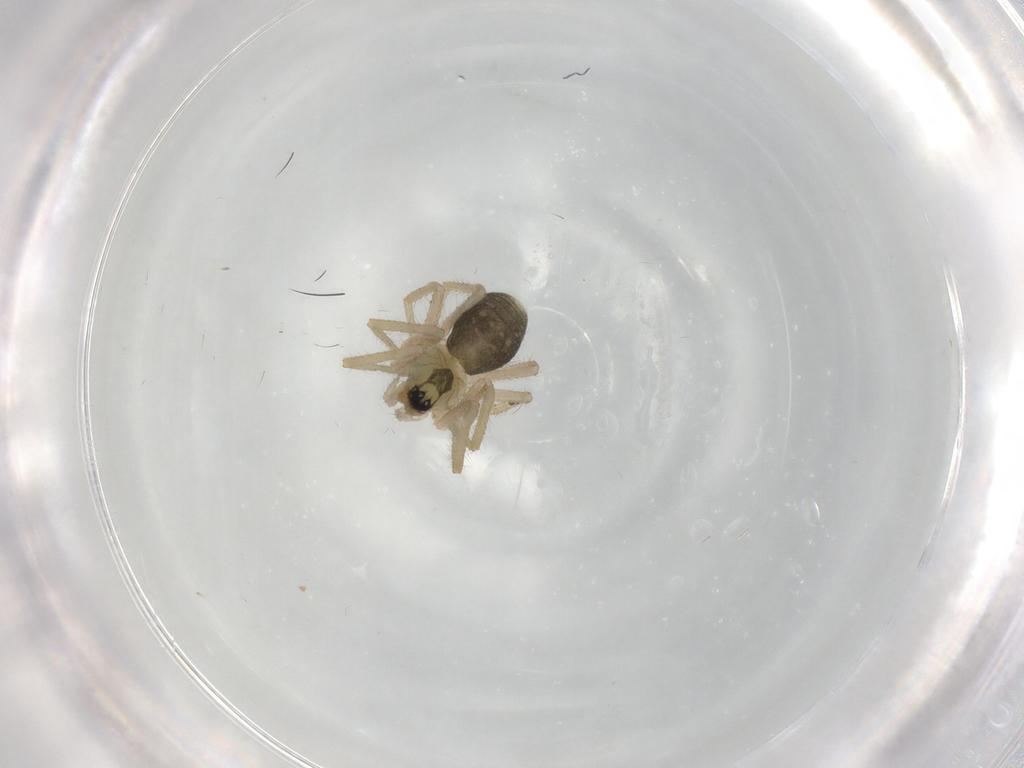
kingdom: Animalia
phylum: Arthropoda
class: Arachnida
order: Araneae
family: Linyphiidae
